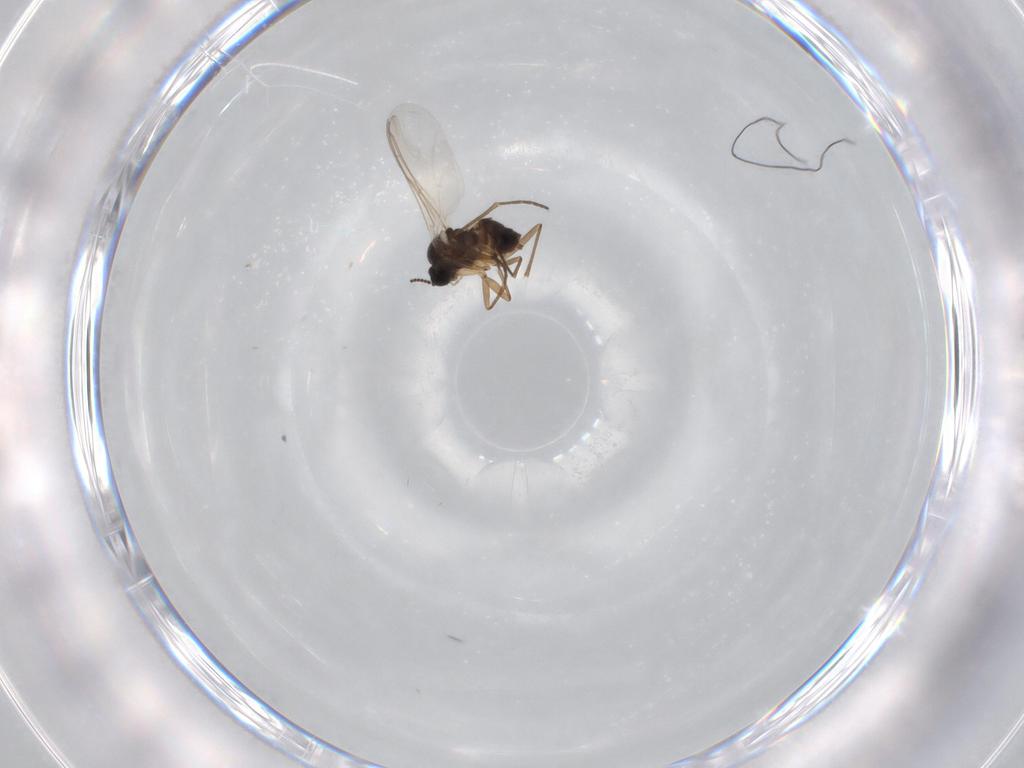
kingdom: Animalia
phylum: Arthropoda
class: Insecta
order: Diptera
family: Sciaridae
